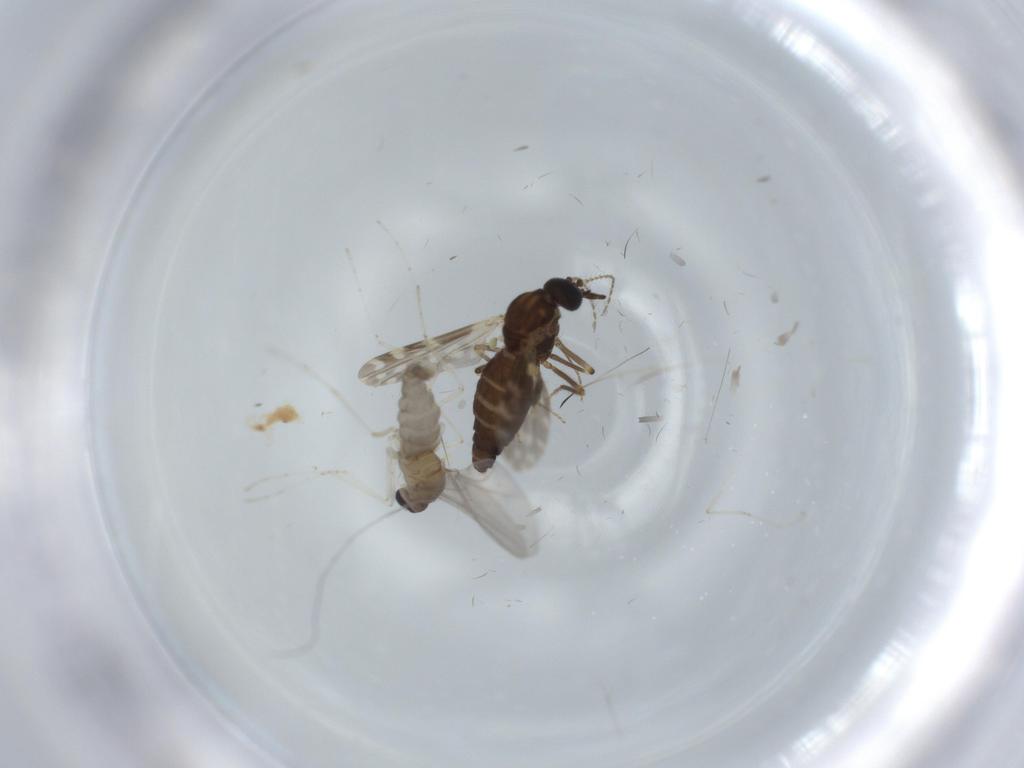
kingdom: Animalia
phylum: Arthropoda
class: Insecta
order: Diptera
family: Ceratopogonidae
